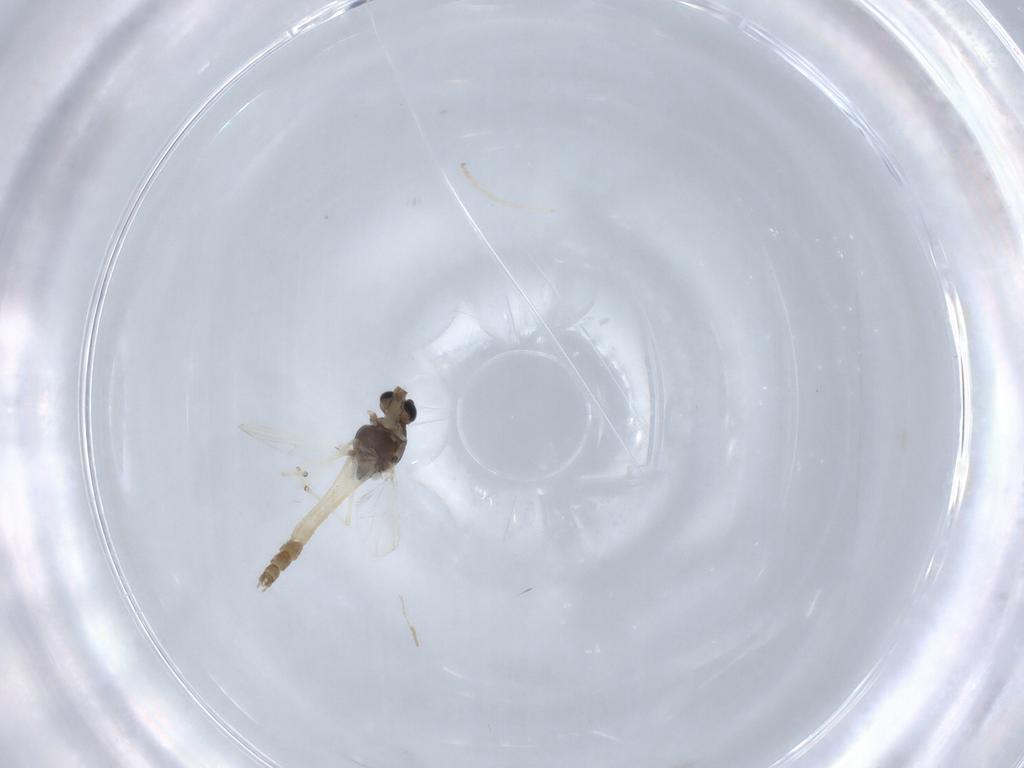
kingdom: Animalia
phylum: Arthropoda
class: Insecta
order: Diptera
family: Chironomidae
